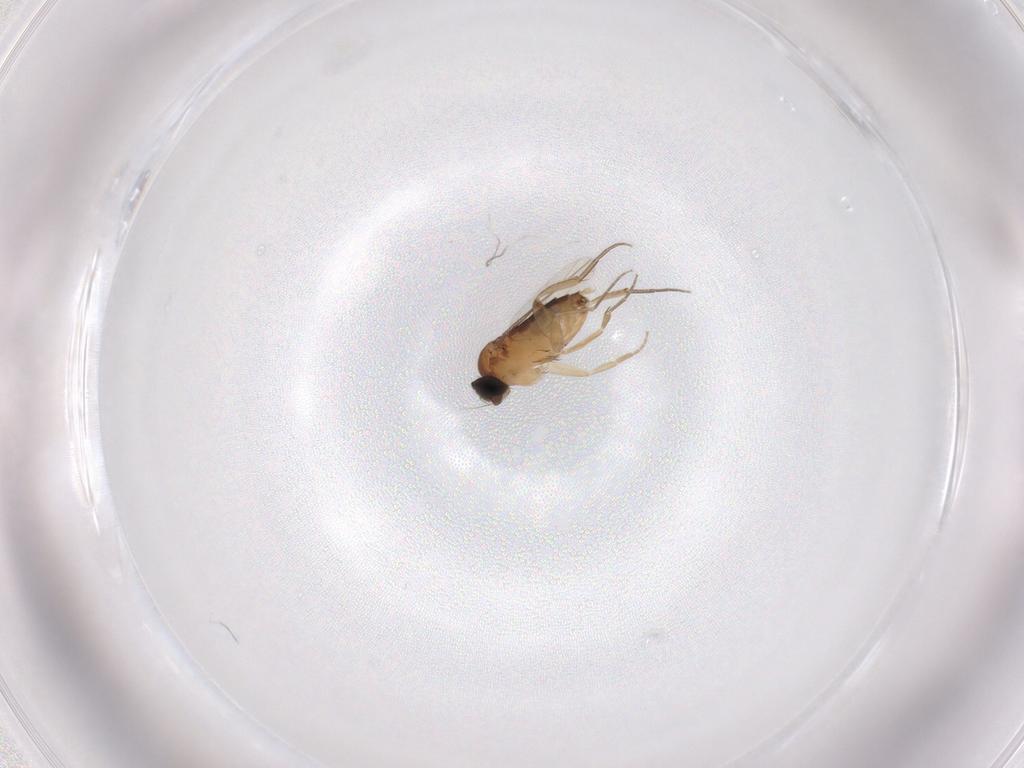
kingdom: Animalia
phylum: Arthropoda
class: Insecta
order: Diptera
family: Phoridae
